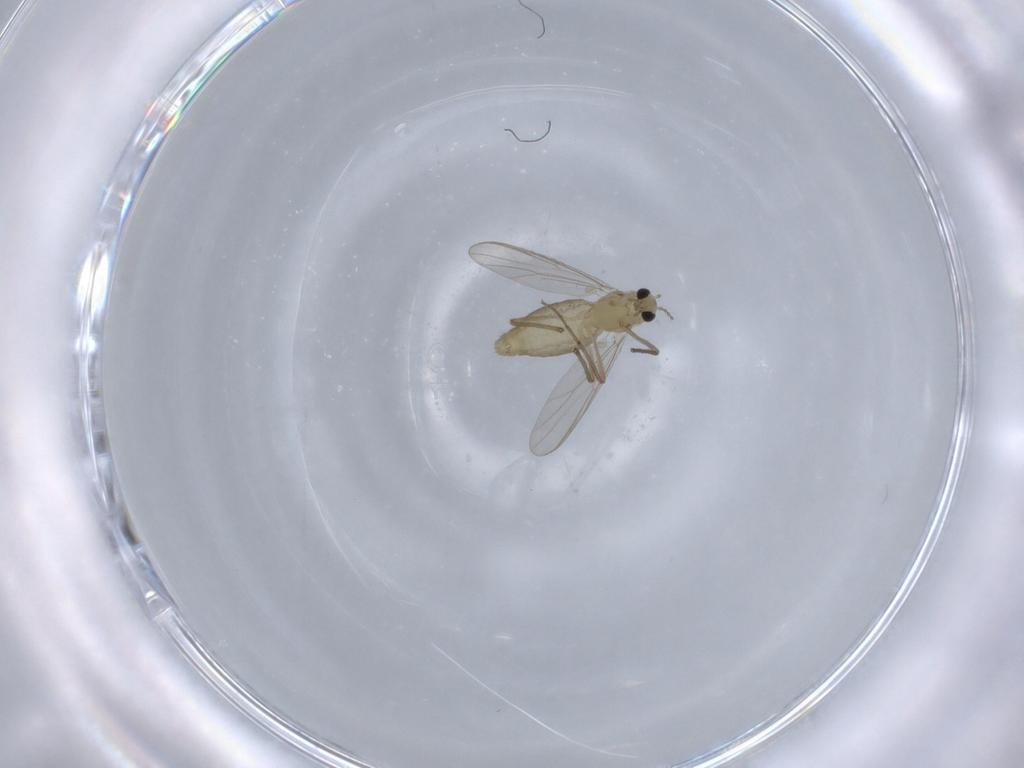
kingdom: Animalia
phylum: Arthropoda
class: Insecta
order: Diptera
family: Chironomidae
